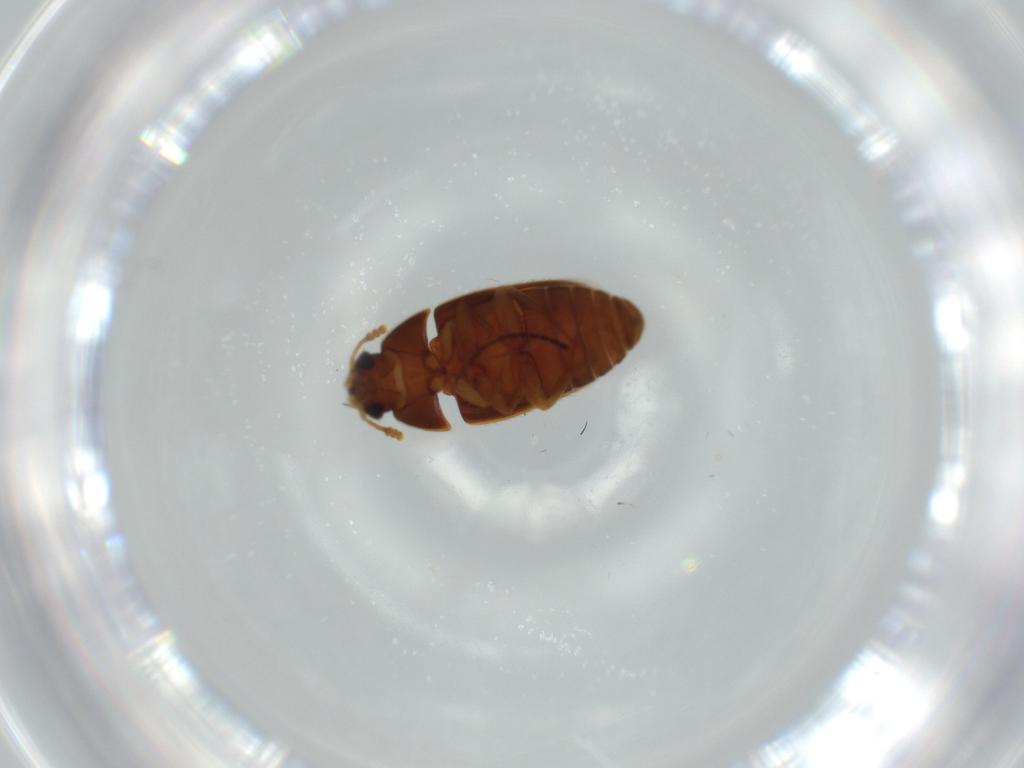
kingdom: Animalia
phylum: Arthropoda
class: Insecta
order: Coleoptera
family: Mycetophagidae
